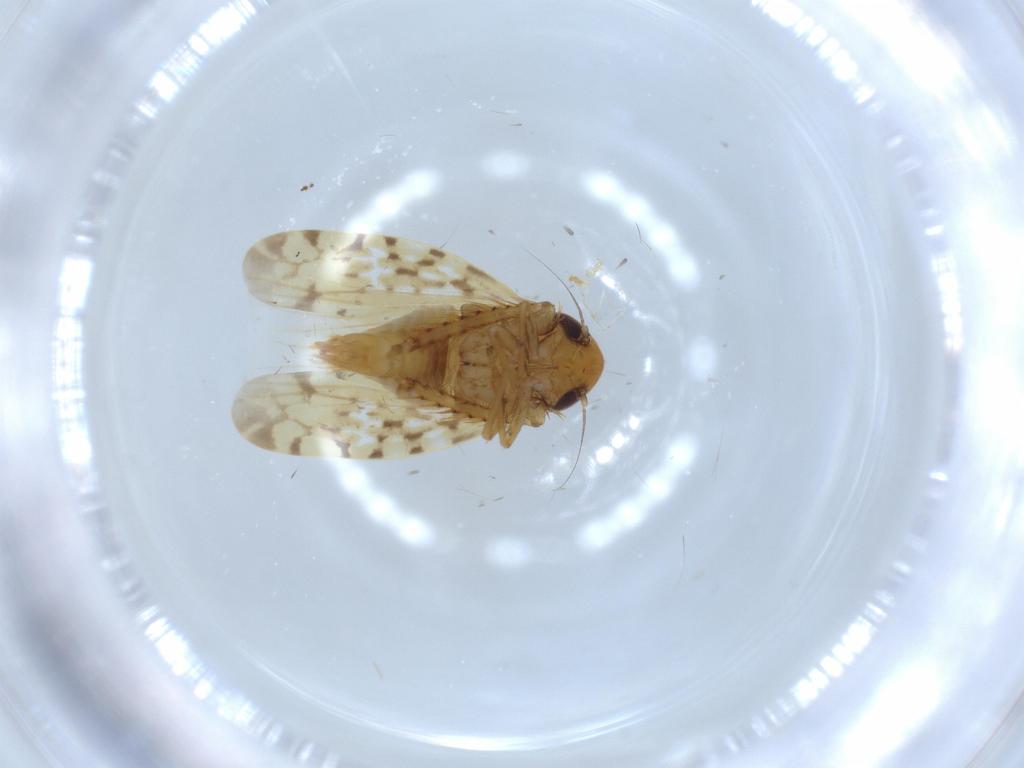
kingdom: Animalia
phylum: Arthropoda
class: Insecta
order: Hemiptera
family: Cicadellidae
